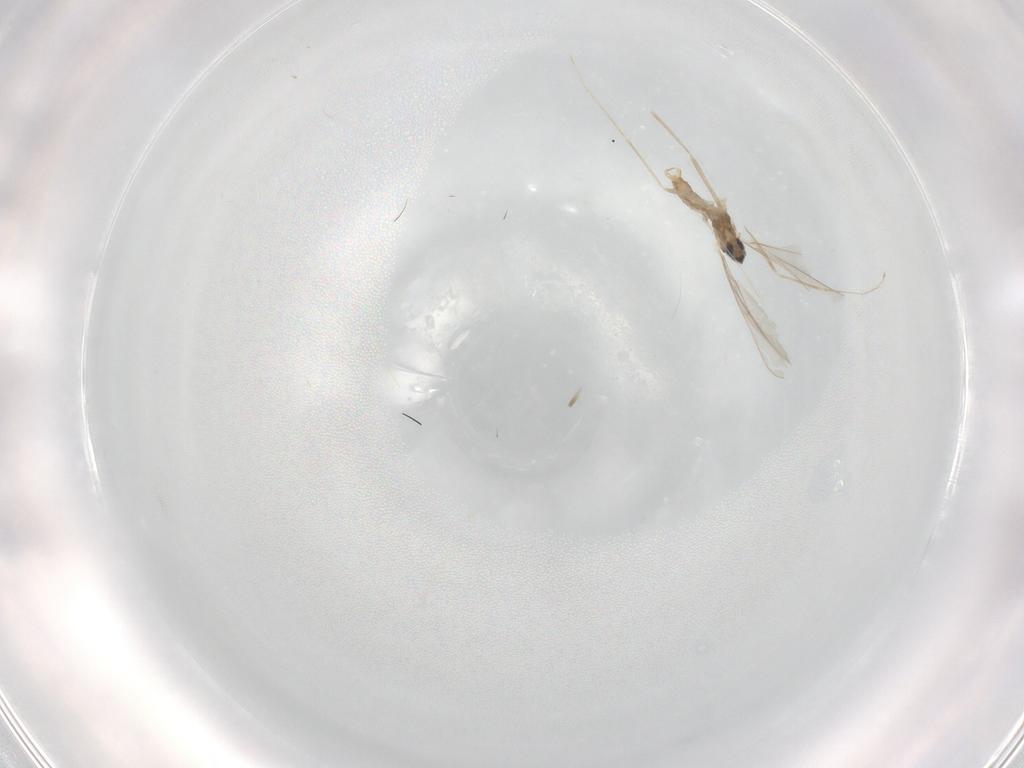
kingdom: Animalia
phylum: Arthropoda
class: Insecta
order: Diptera
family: Cecidomyiidae
